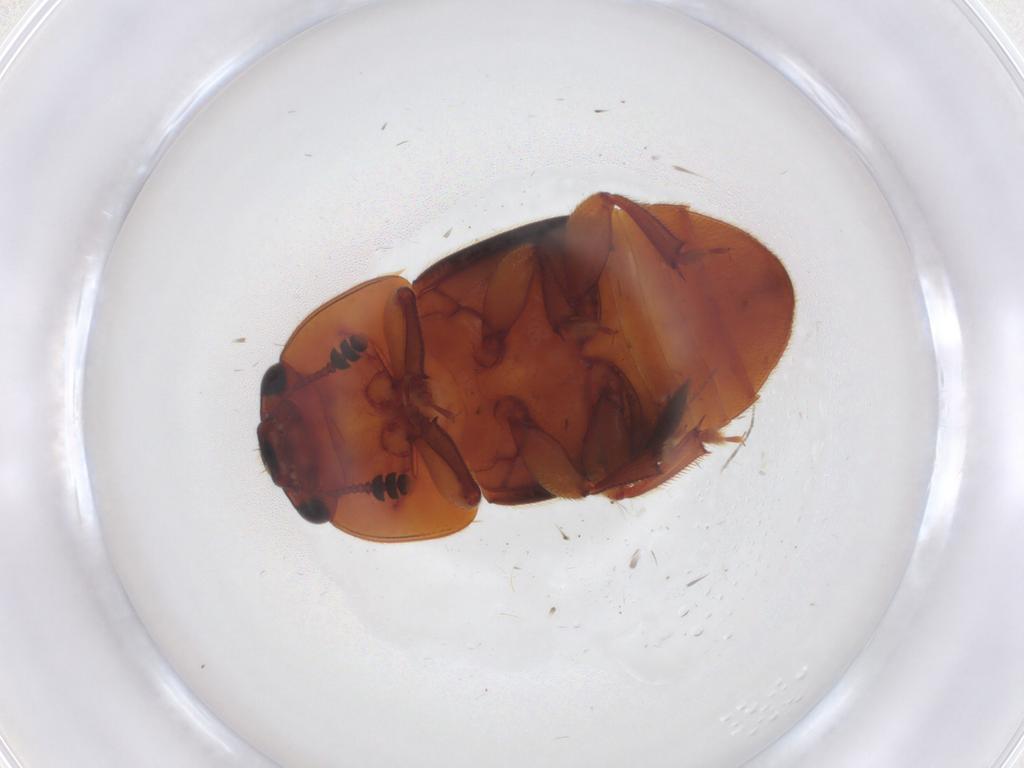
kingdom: Animalia
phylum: Arthropoda
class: Insecta
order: Coleoptera
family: Nitidulidae
